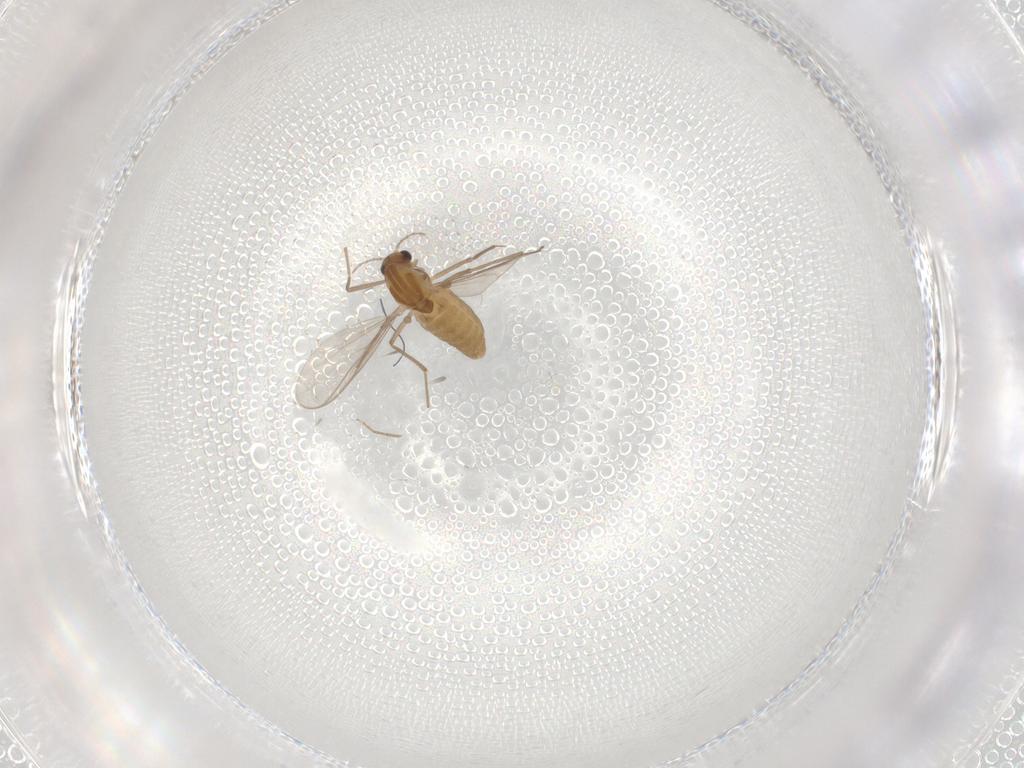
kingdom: Animalia
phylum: Arthropoda
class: Insecta
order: Diptera
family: Chironomidae
